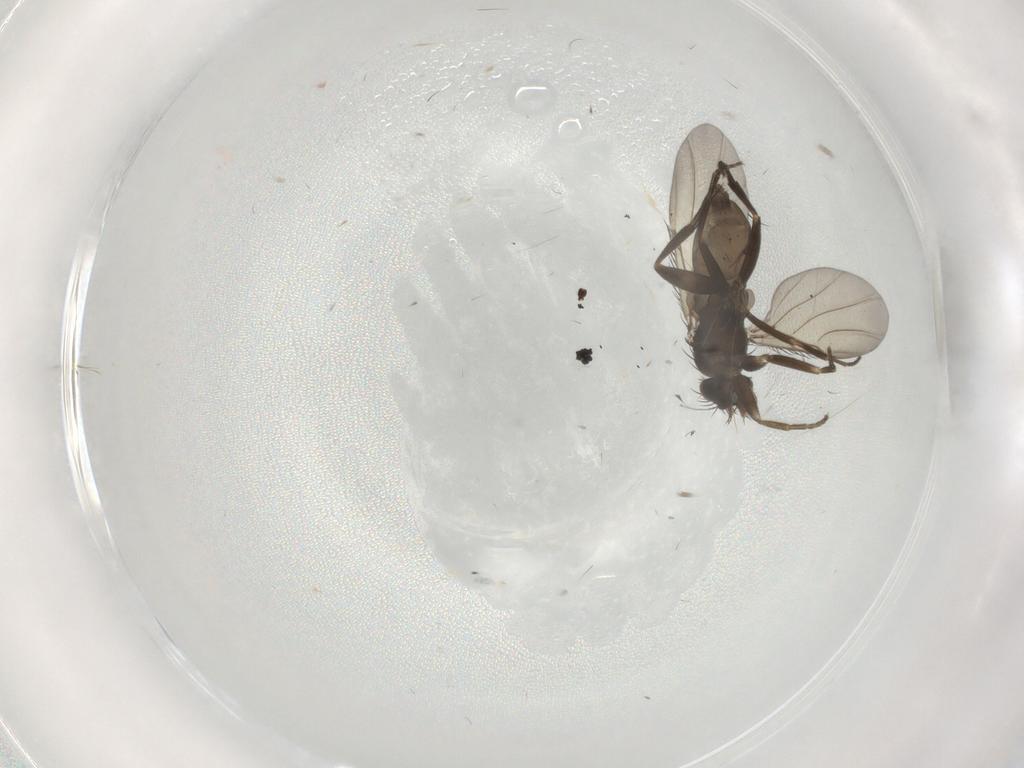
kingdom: Animalia
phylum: Arthropoda
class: Insecta
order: Diptera
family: Phoridae
